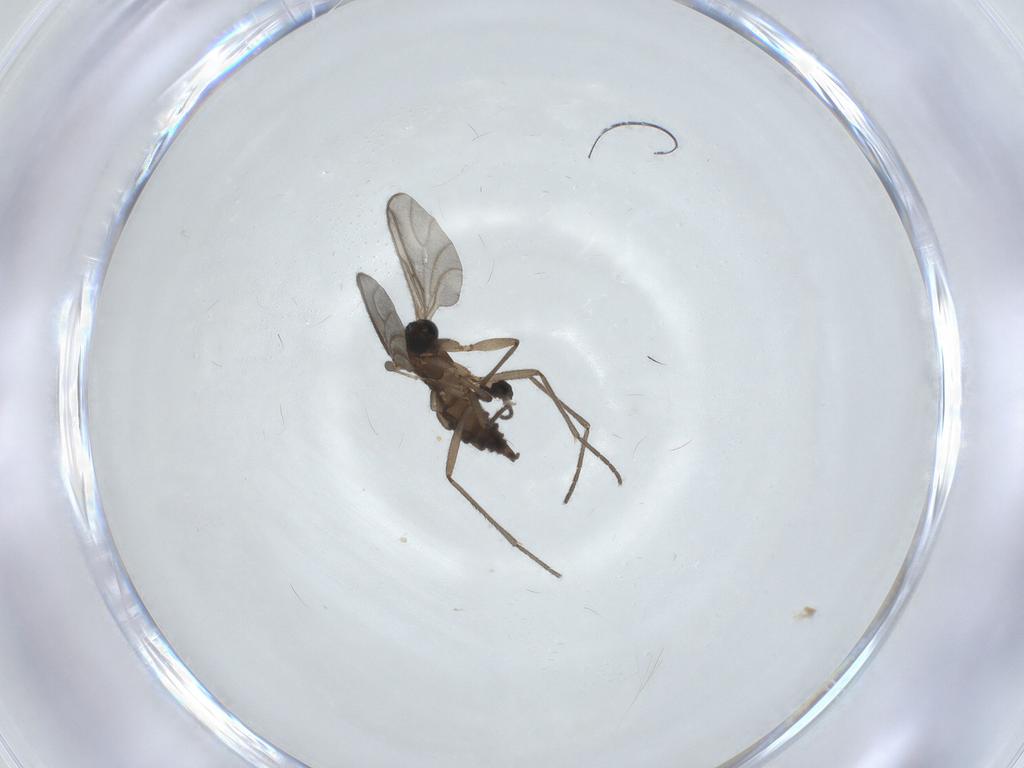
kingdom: Animalia
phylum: Arthropoda
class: Insecta
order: Diptera
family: Sciaridae
